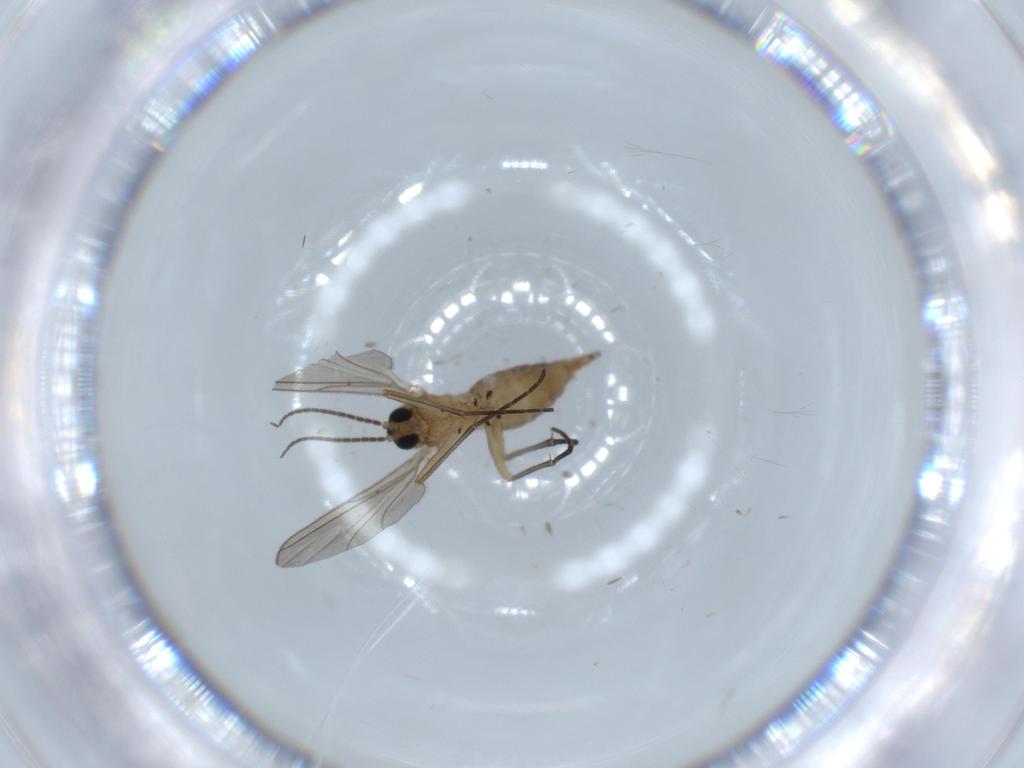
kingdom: Animalia
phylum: Arthropoda
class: Insecta
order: Diptera
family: Sciaridae
